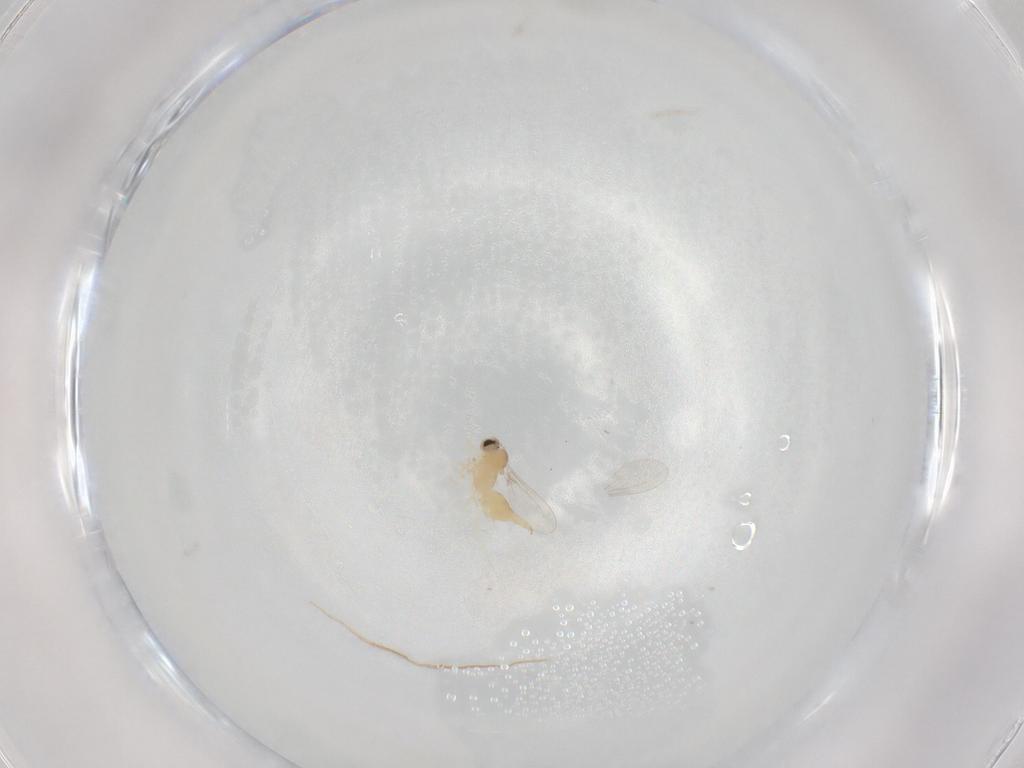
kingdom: Animalia
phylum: Arthropoda
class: Insecta
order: Diptera
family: Cecidomyiidae
